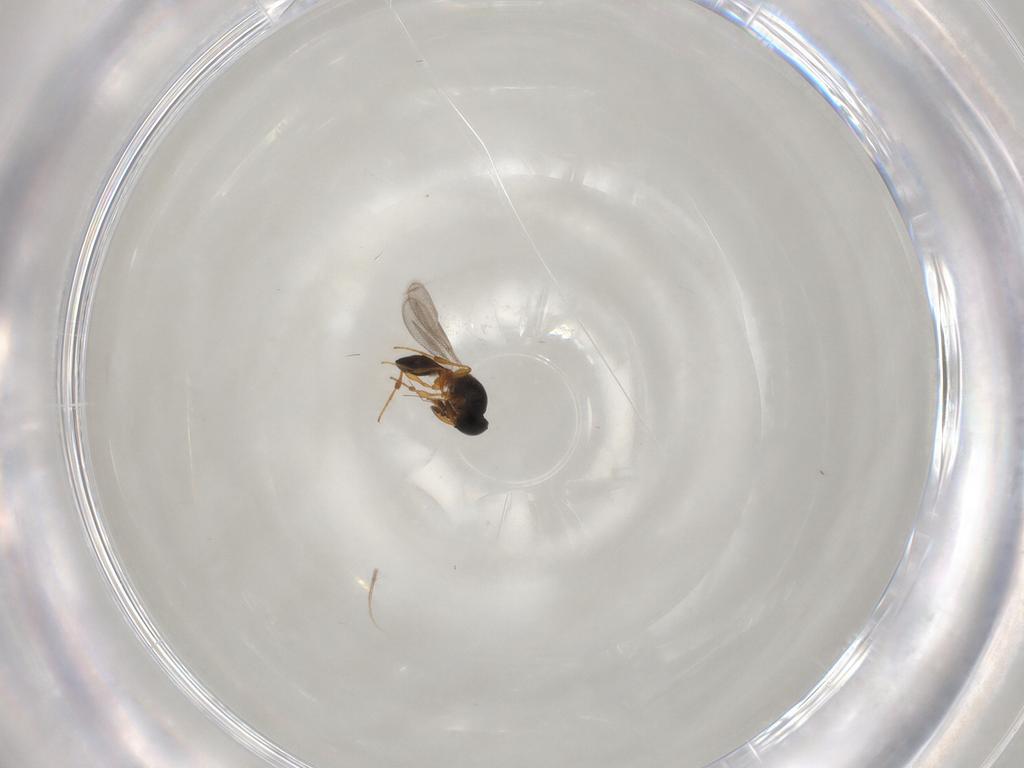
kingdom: Animalia
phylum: Arthropoda
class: Insecta
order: Hymenoptera
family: Platygastridae
